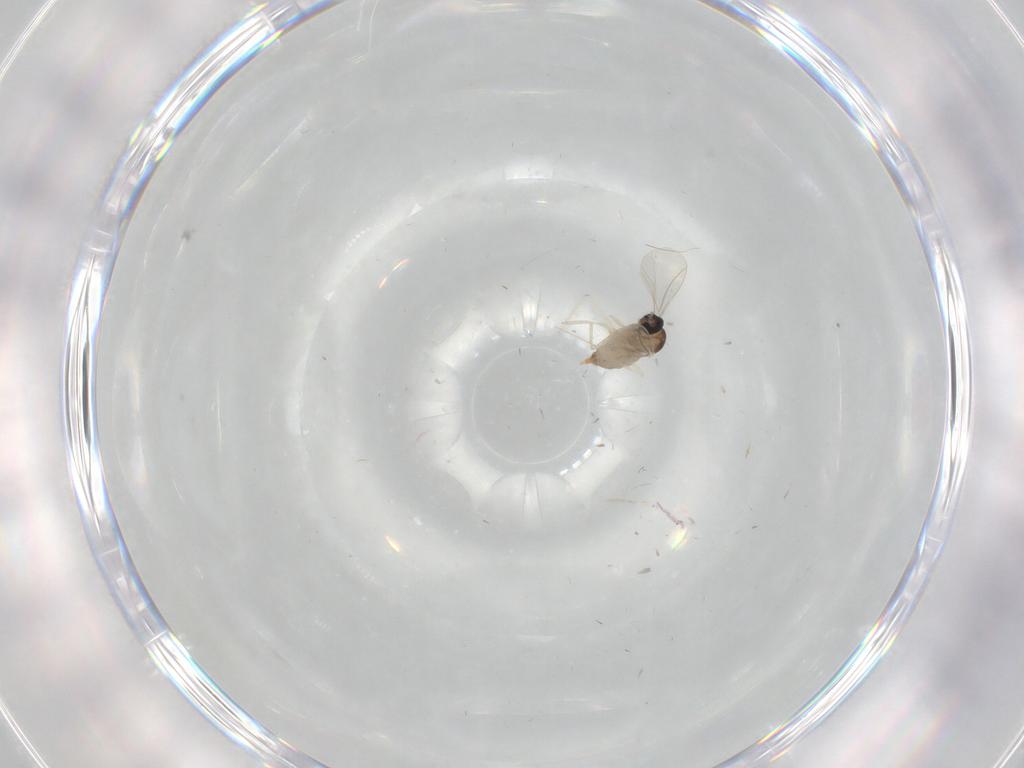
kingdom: Animalia
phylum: Arthropoda
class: Insecta
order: Diptera
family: Cecidomyiidae
